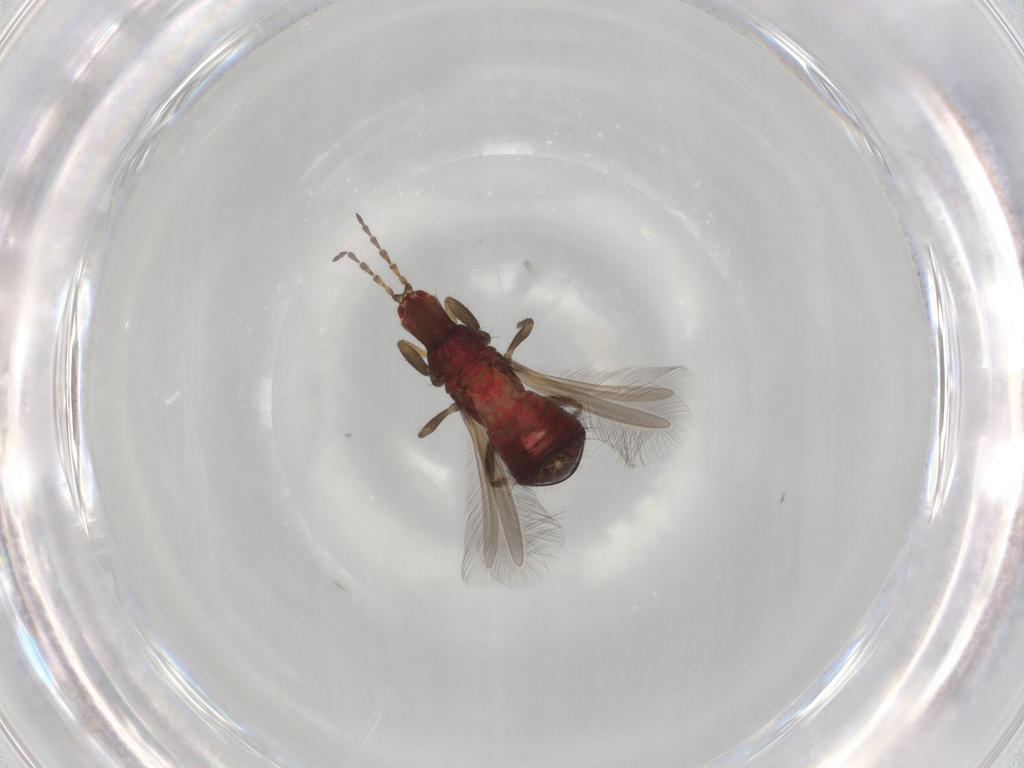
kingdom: Animalia
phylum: Arthropoda
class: Insecta
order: Thysanoptera
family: Phlaeothripidae
